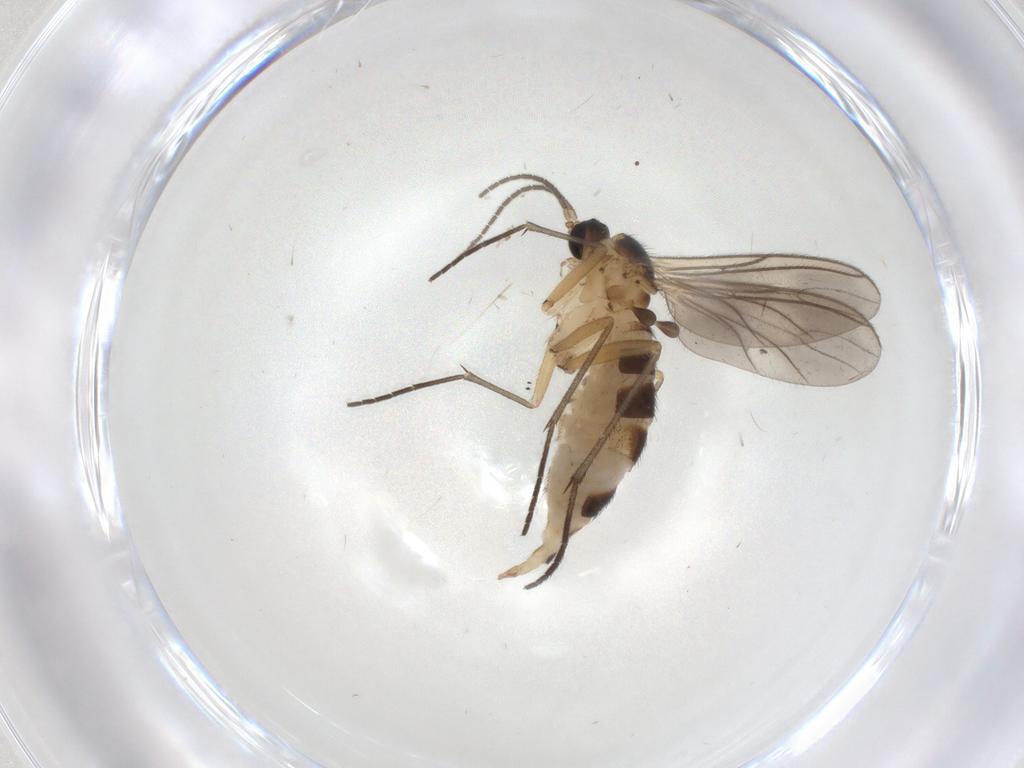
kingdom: Animalia
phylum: Arthropoda
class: Insecta
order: Diptera
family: Sciaridae
